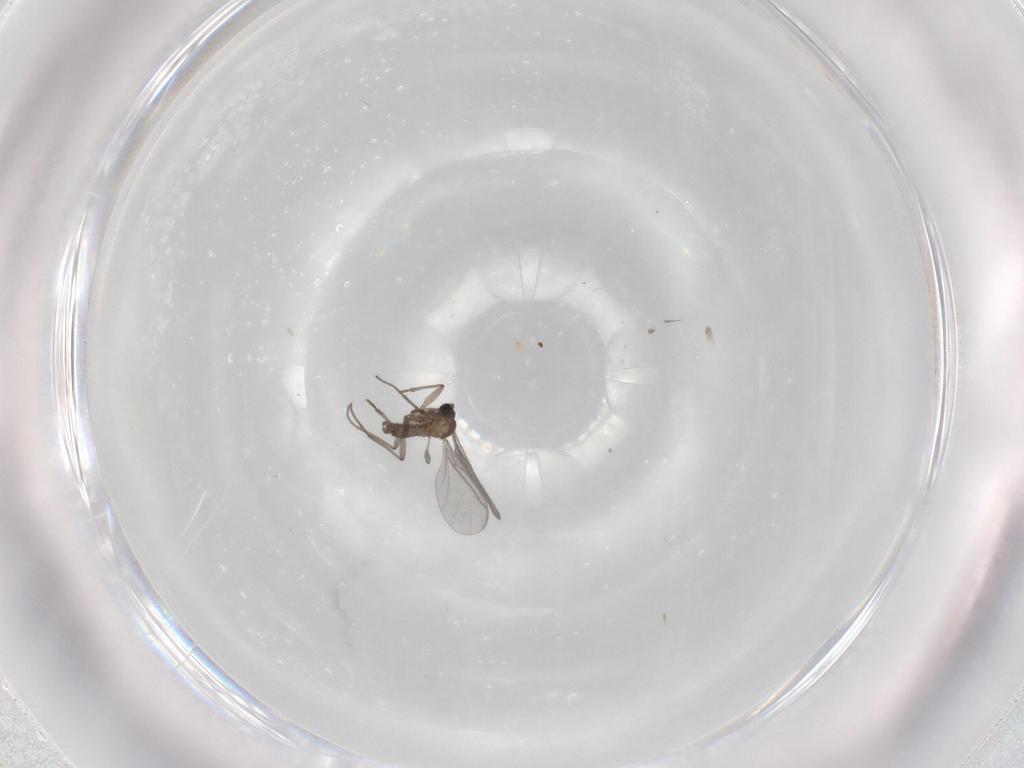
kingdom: Animalia
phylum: Arthropoda
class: Insecta
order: Diptera
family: Sciaridae
